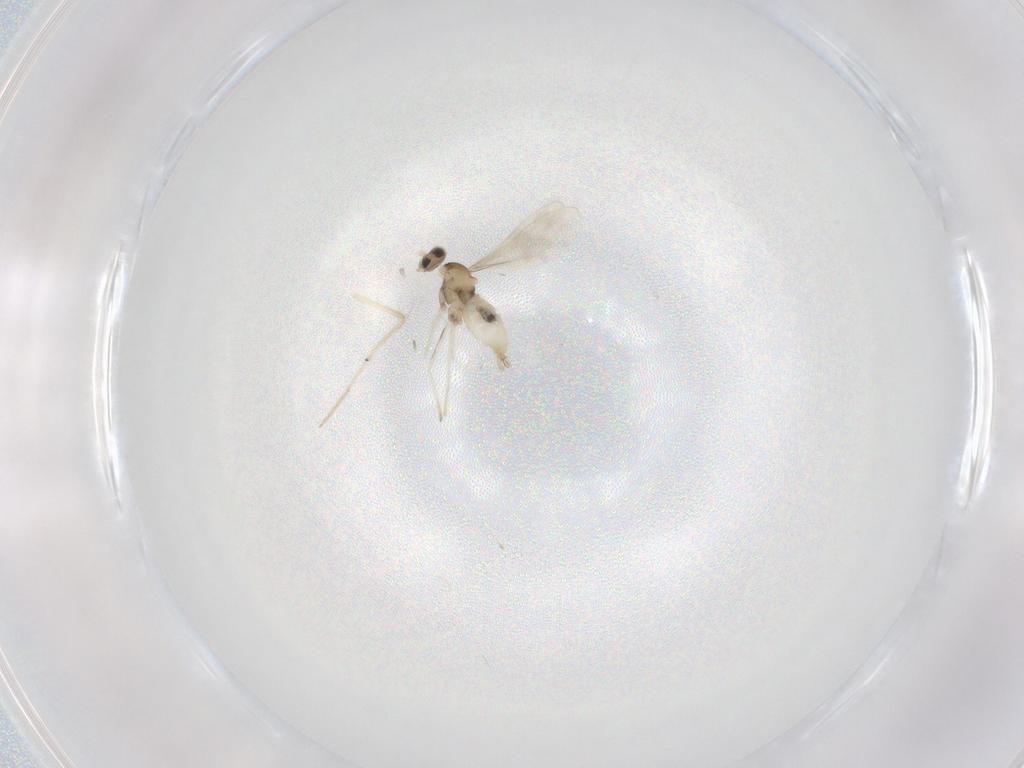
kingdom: Animalia
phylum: Arthropoda
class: Insecta
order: Diptera
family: Cecidomyiidae
